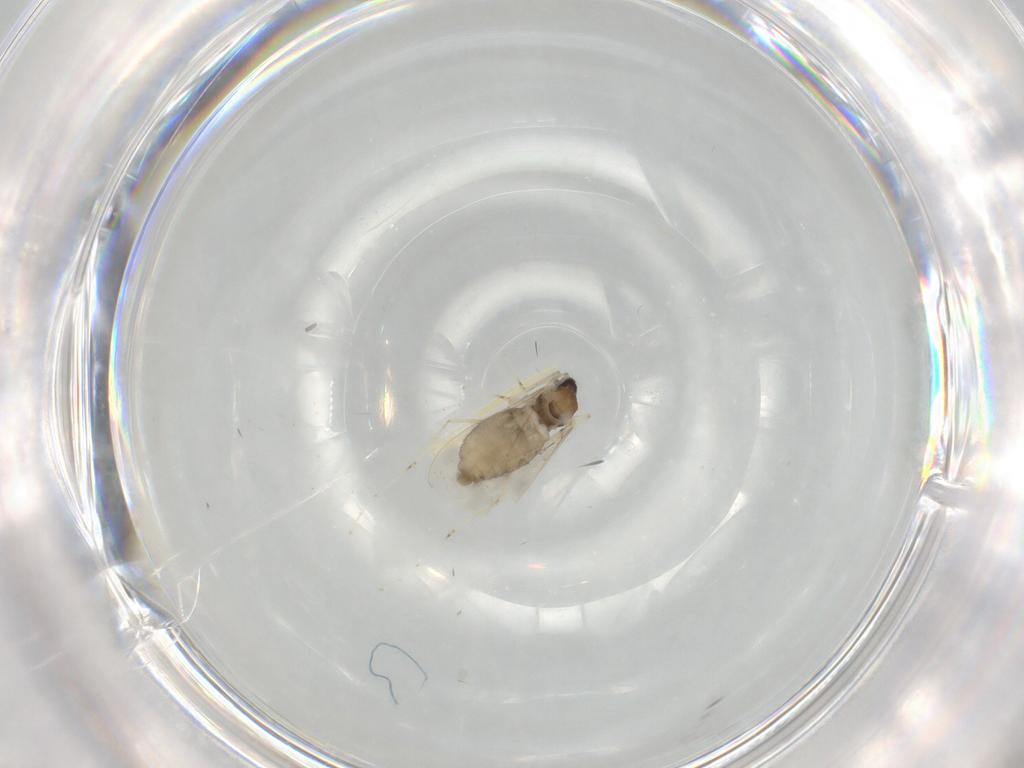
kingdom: Animalia
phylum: Arthropoda
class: Insecta
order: Diptera
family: Cecidomyiidae
